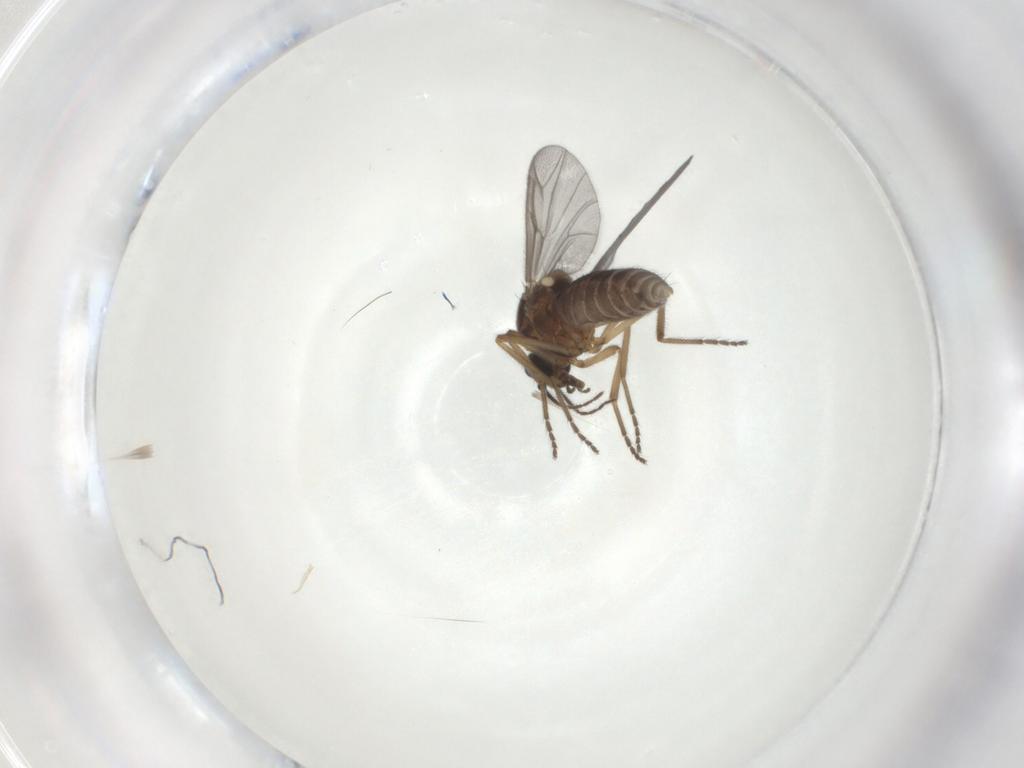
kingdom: Animalia
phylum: Arthropoda
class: Insecta
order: Diptera
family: Ceratopogonidae
